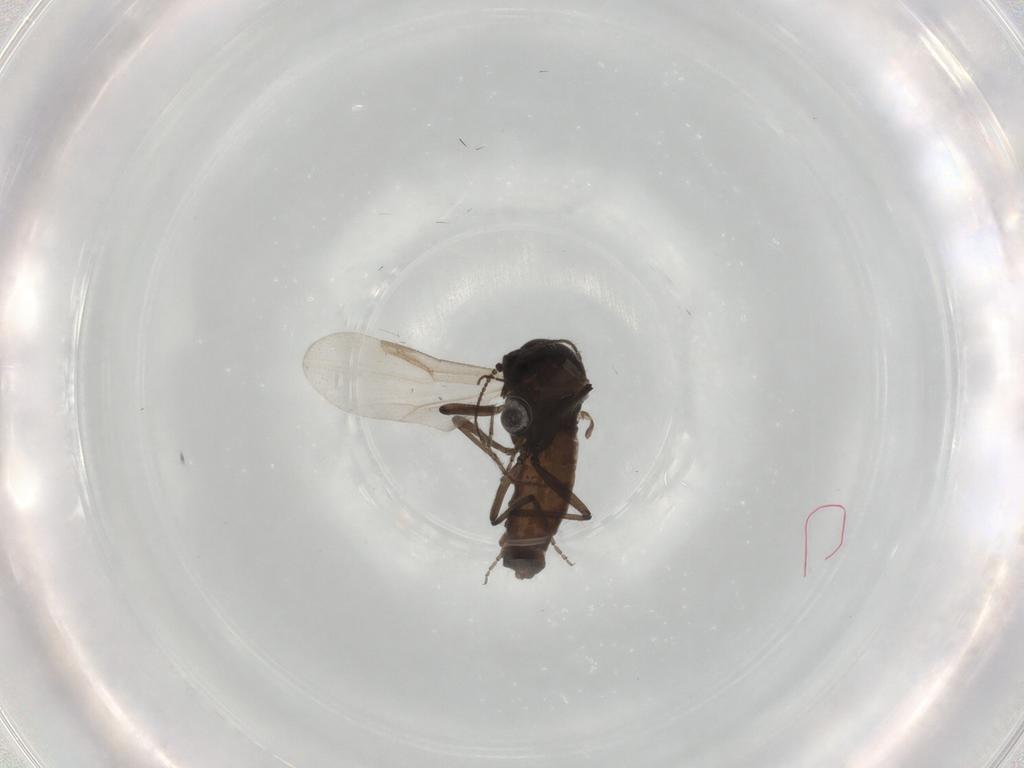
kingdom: Animalia
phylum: Arthropoda
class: Insecta
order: Diptera
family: Ceratopogonidae
